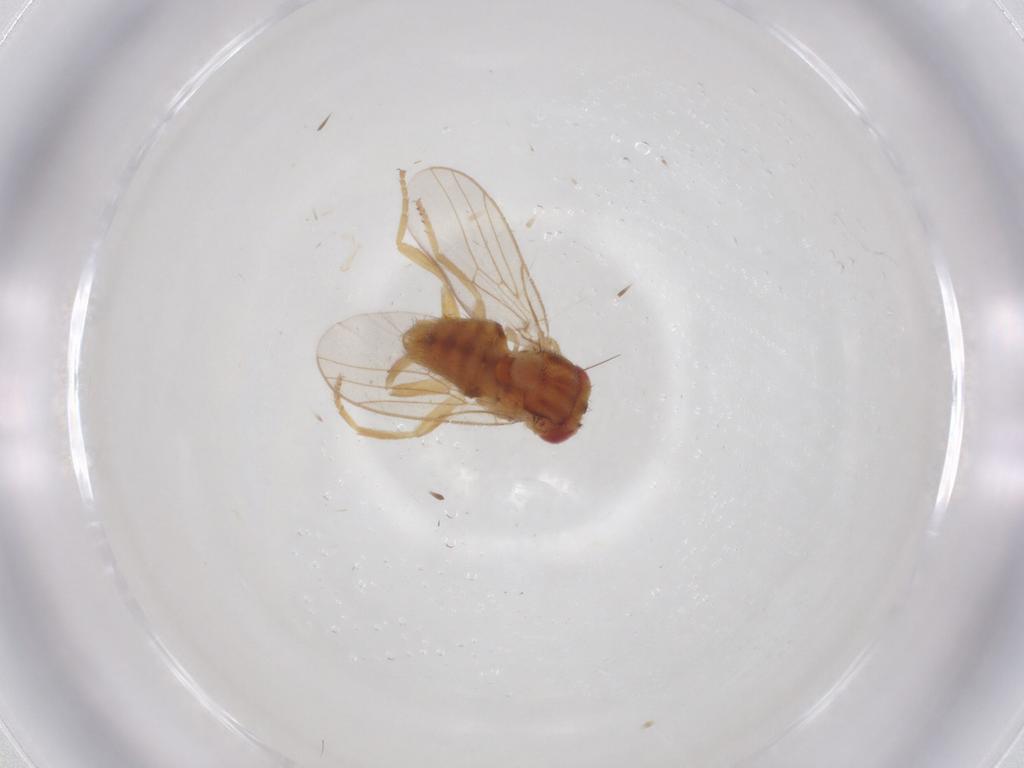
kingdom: Animalia
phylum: Arthropoda
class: Insecta
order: Diptera
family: Chloropidae
